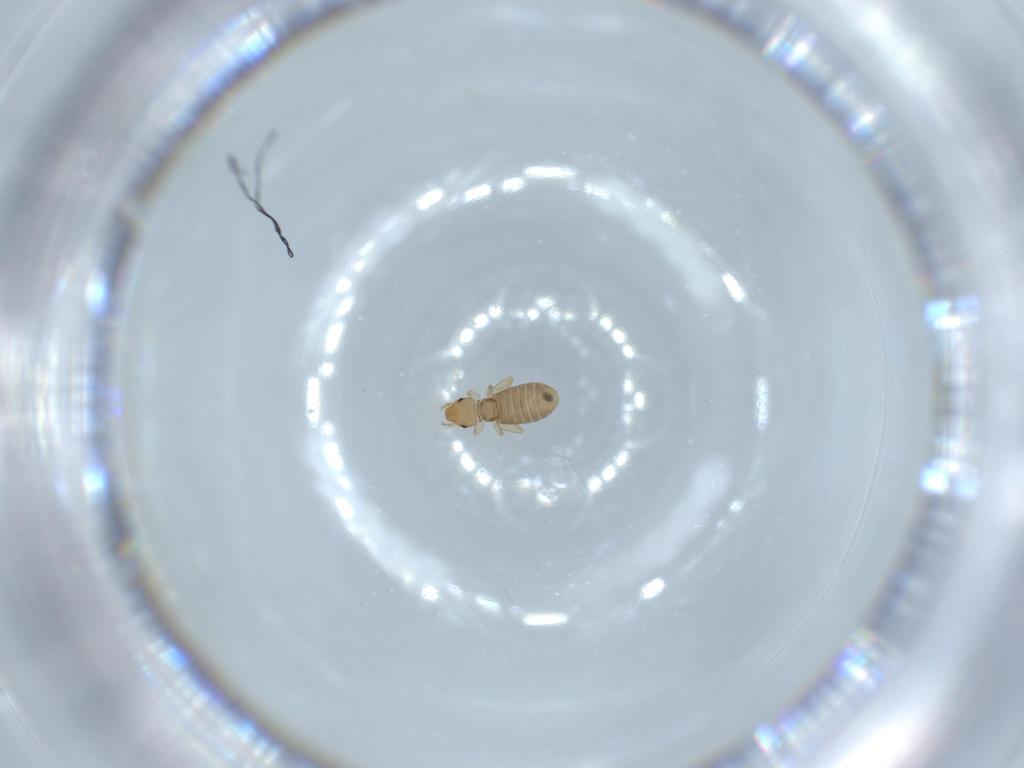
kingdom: Animalia
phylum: Arthropoda
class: Insecta
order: Psocodea
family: Liposcelididae
